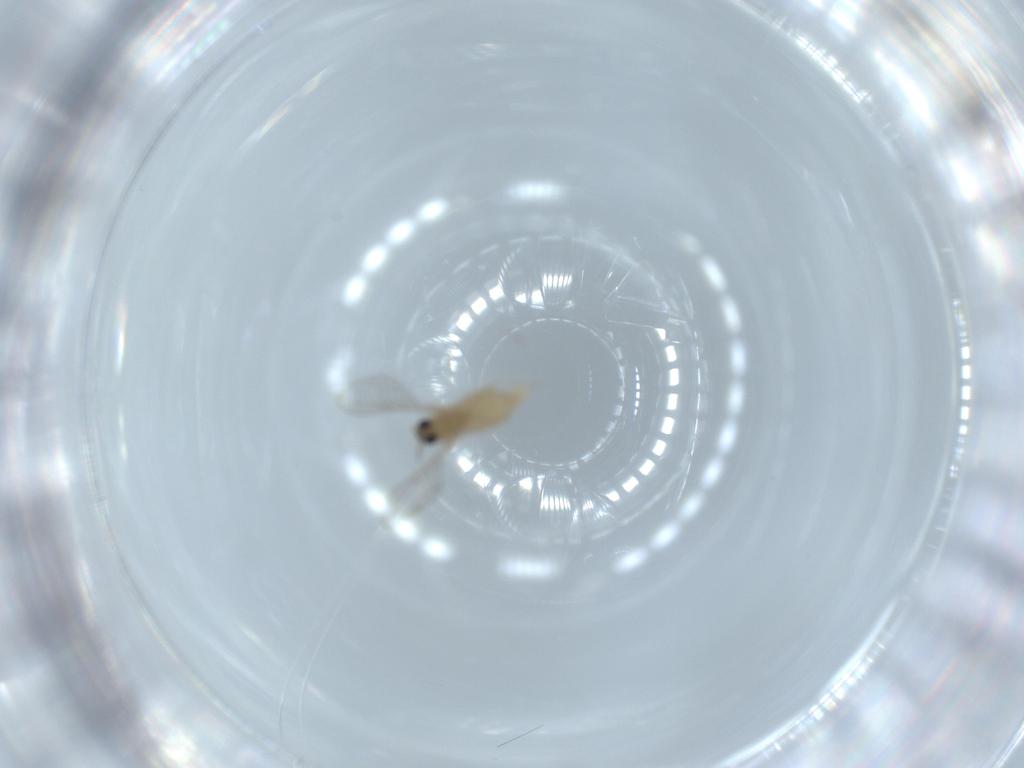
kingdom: Animalia
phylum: Arthropoda
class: Insecta
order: Diptera
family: Cecidomyiidae
